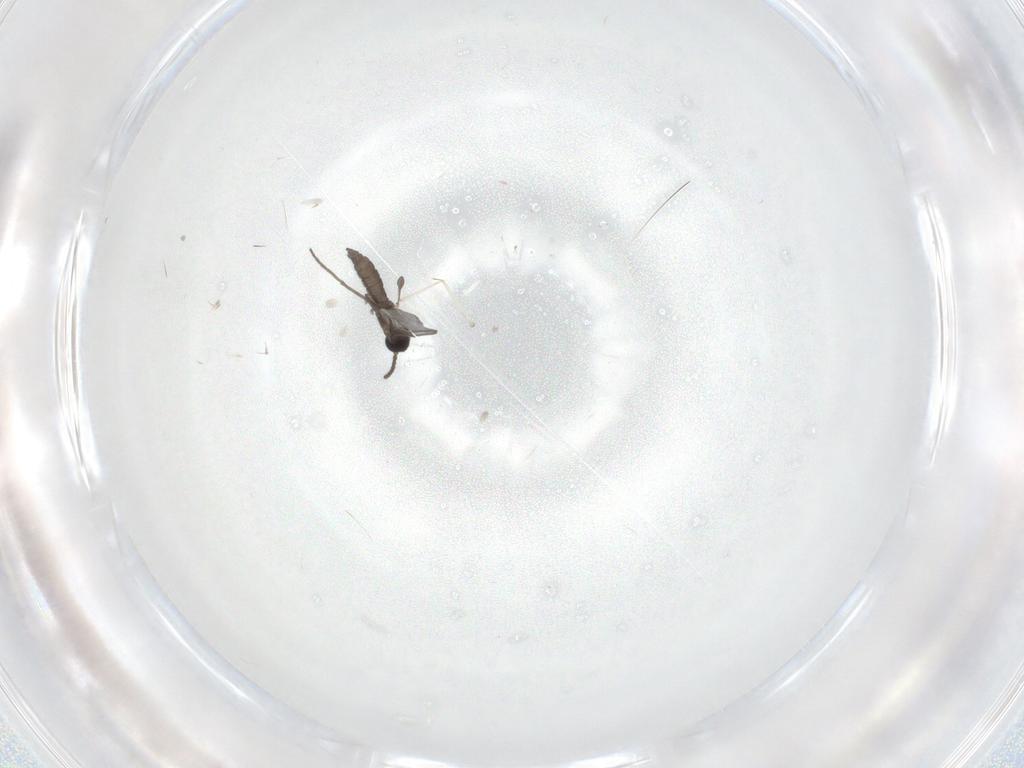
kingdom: Animalia
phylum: Arthropoda
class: Insecta
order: Diptera
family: Sciaridae
